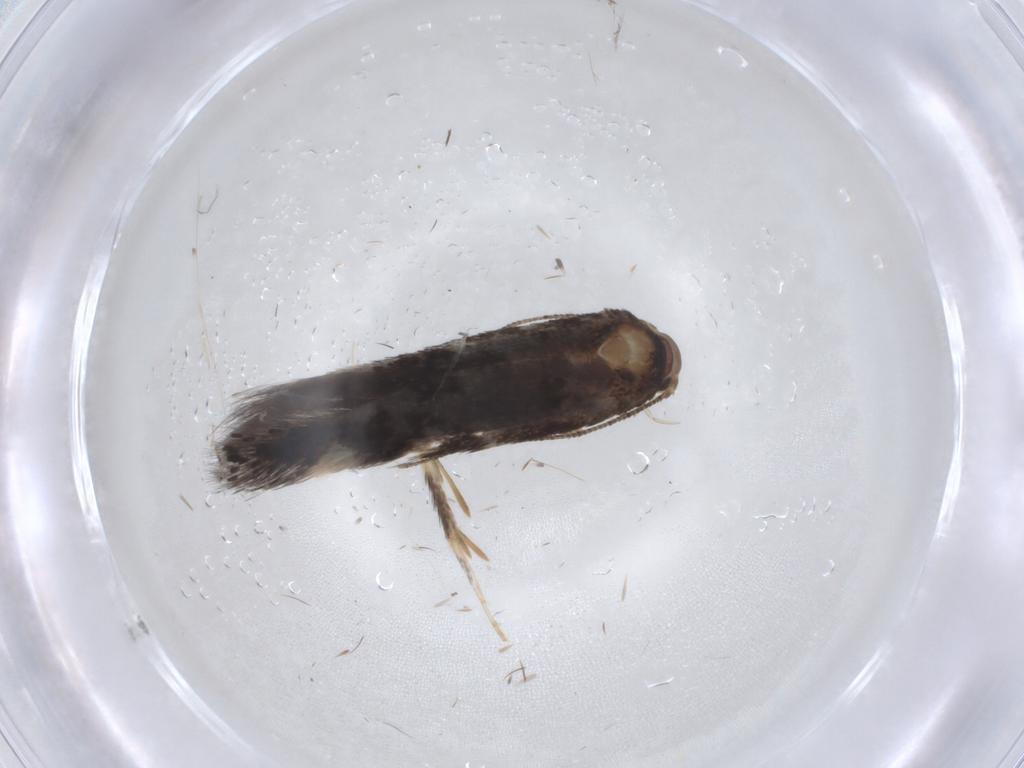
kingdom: Animalia
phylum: Arthropoda
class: Insecta
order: Lepidoptera
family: Elachistidae
